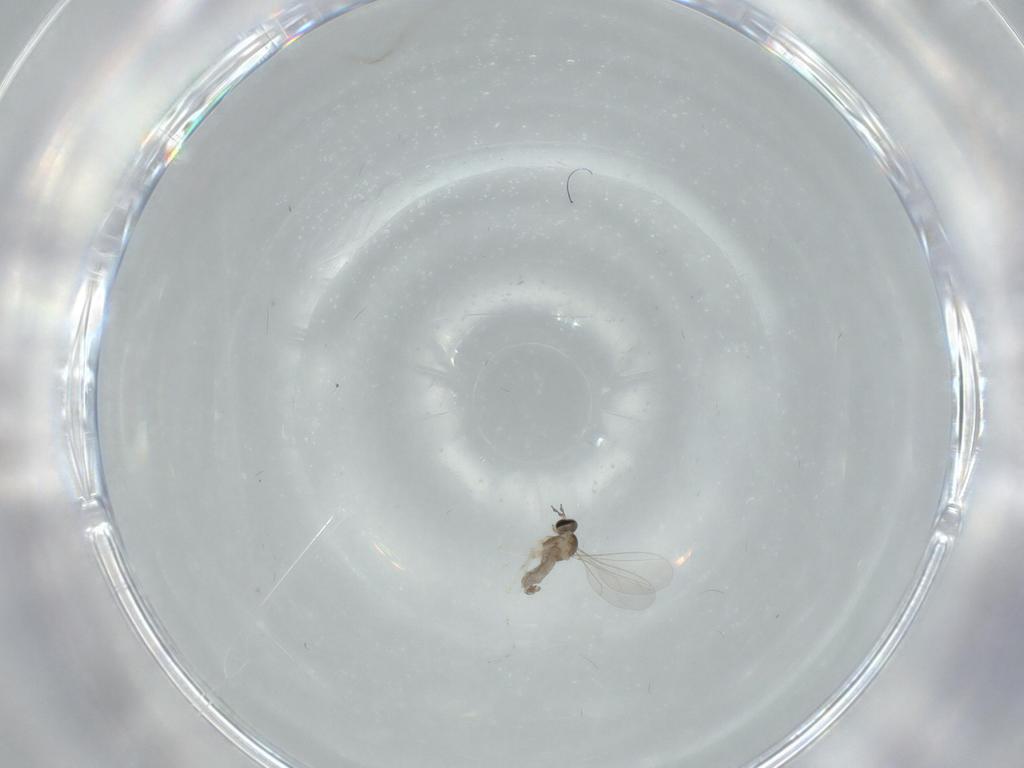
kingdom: Animalia
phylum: Arthropoda
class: Insecta
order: Diptera
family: Cecidomyiidae
